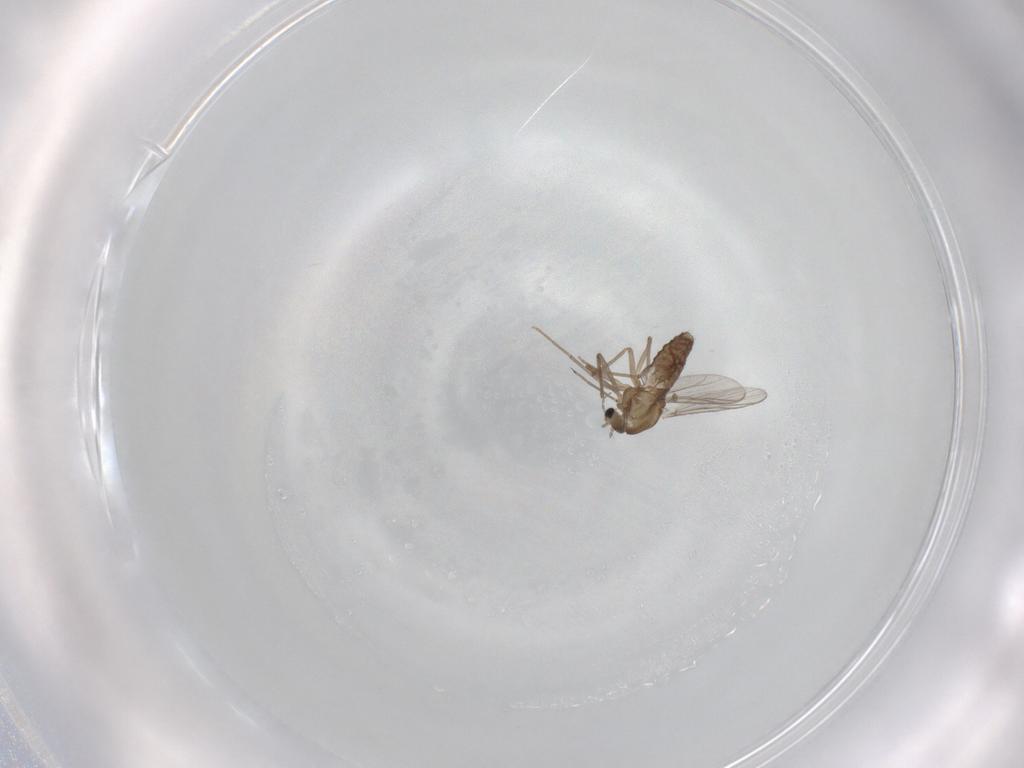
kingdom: Animalia
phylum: Arthropoda
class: Insecta
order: Diptera
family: Chironomidae
